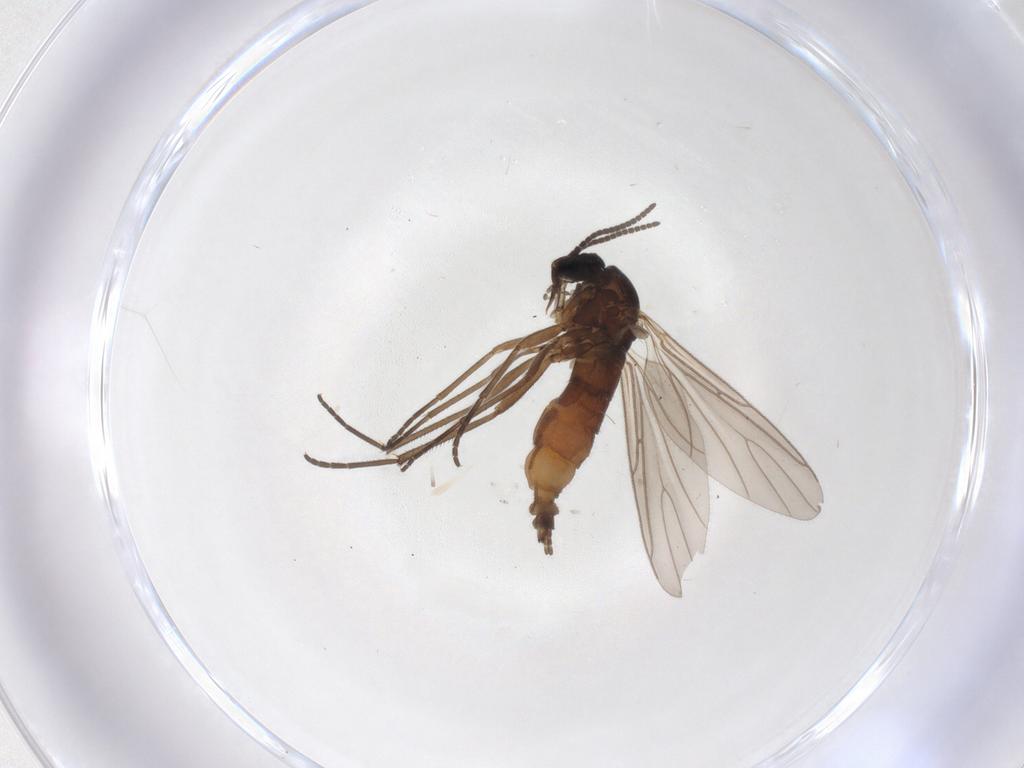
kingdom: Animalia
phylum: Arthropoda
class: Insecta
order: Diptera
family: Sciaridae
